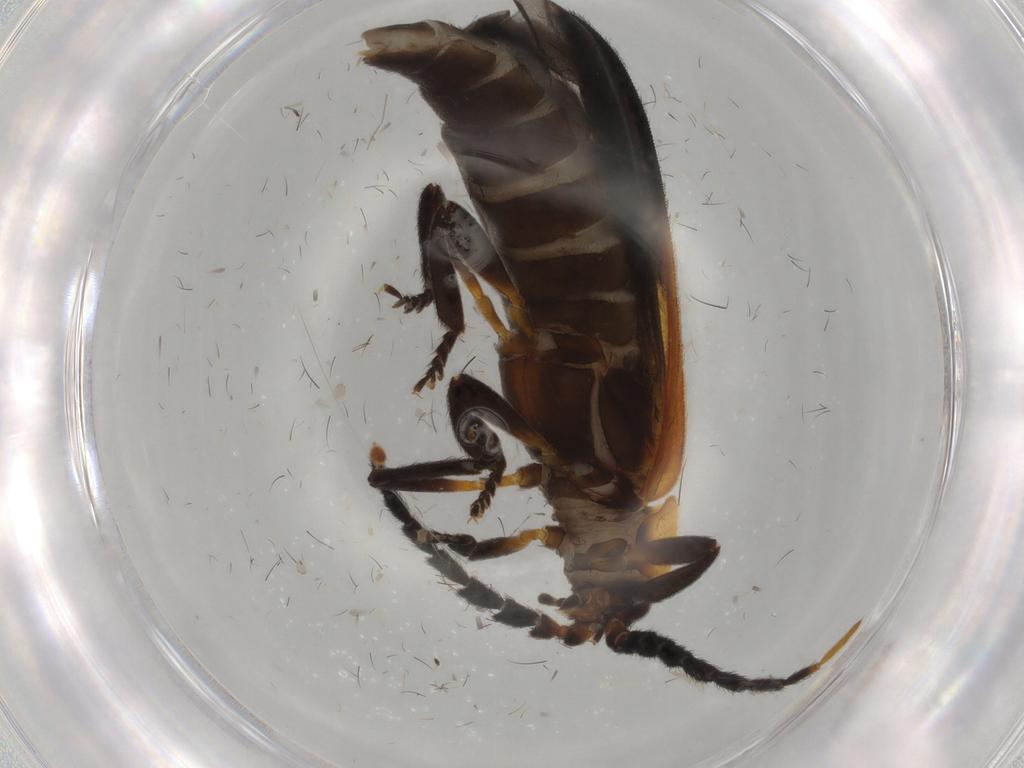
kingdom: Animalia
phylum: Arthropoda
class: Insecta
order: Coleoptera
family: Lycidae
